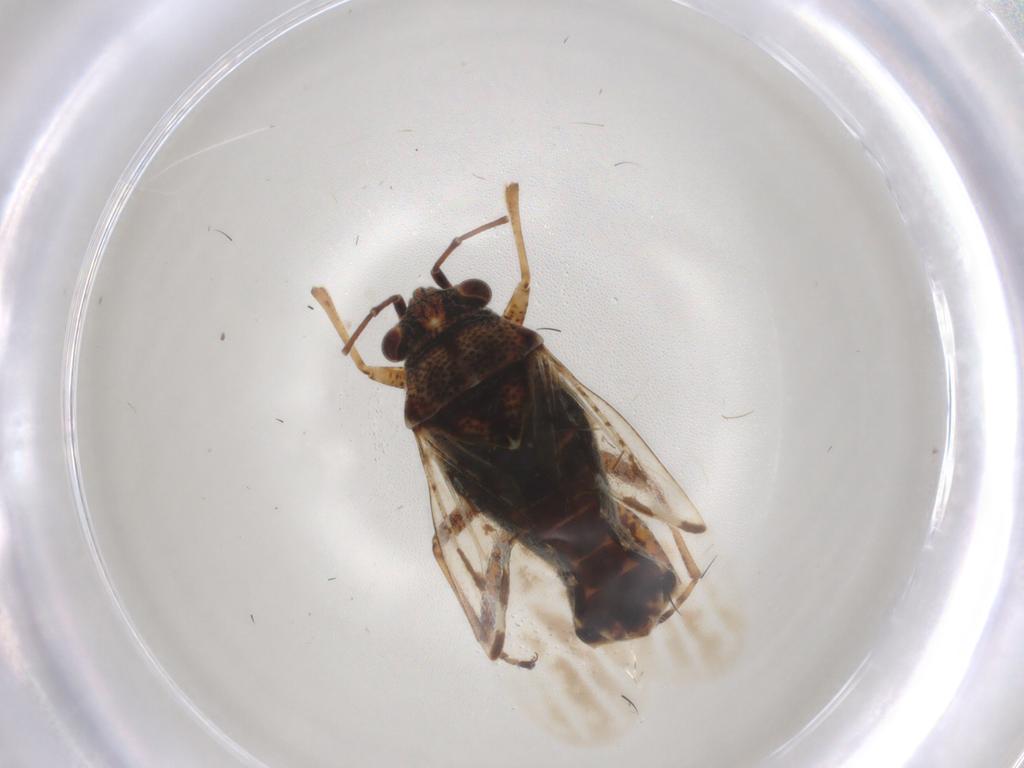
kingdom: Animalia
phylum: Arthropoda
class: Insecta
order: Hemiptera
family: Lygaeidae
